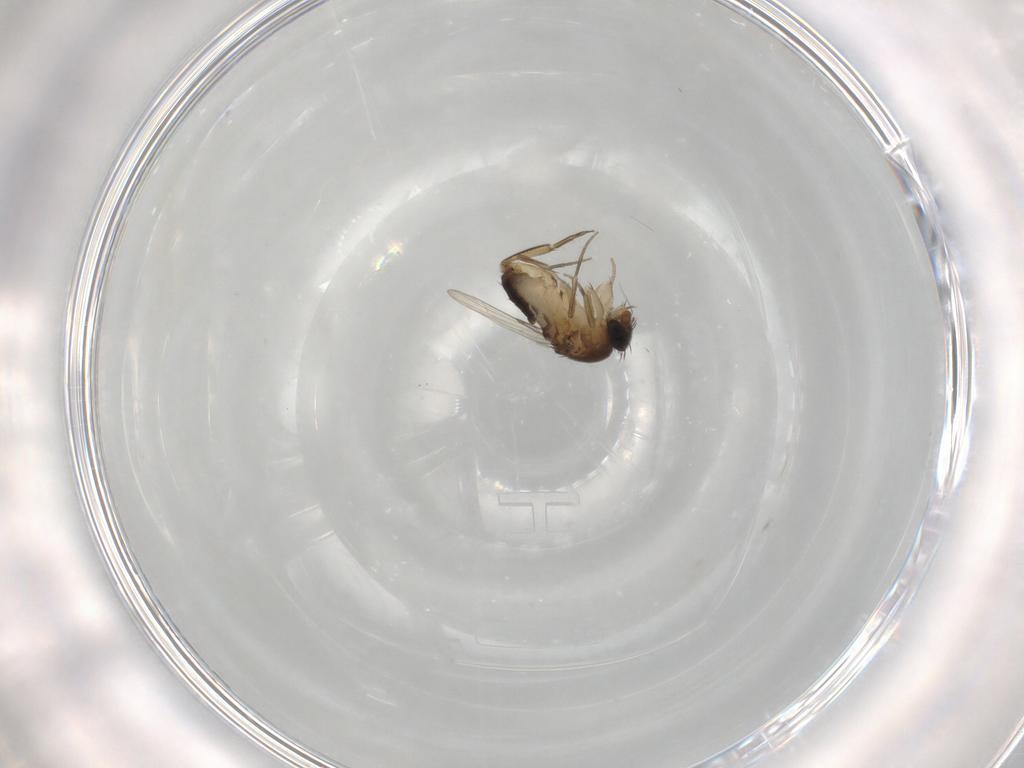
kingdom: Animalia
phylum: Arthropoda
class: Insecta
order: Diptera
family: Phoridae
